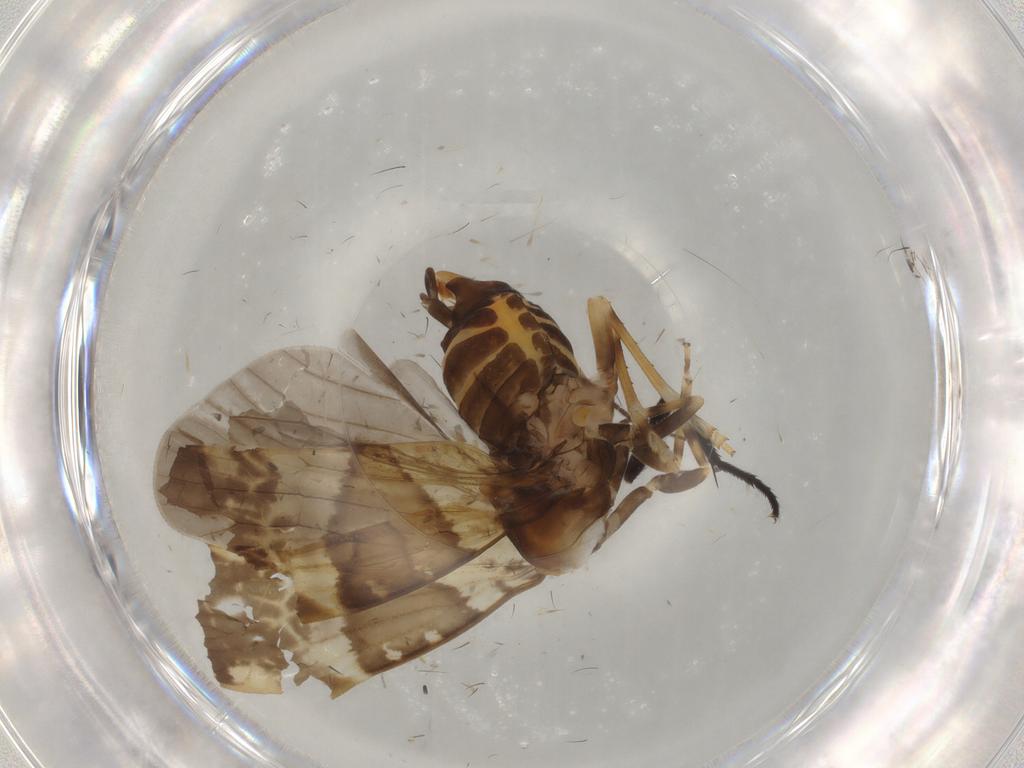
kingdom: Animalia
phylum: Arthropoda
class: Insecta
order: Hemiptera
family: Cixiidae
